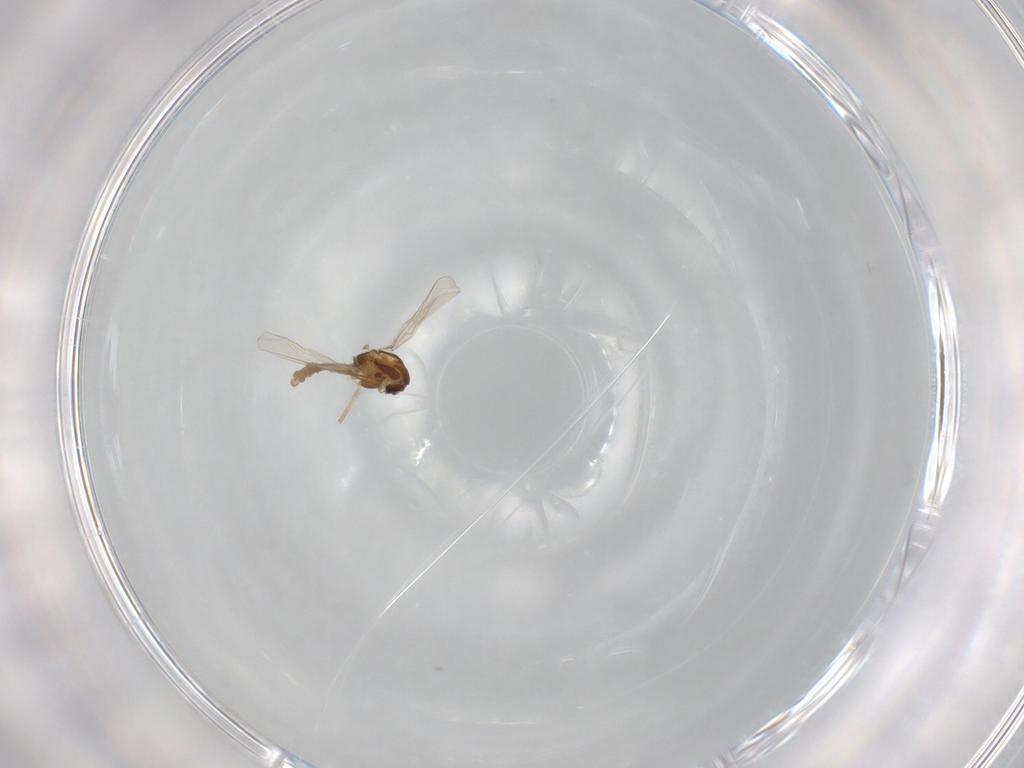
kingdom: Animalia
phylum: Arthropoda
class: Insecta
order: Diptera
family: Chironomidae
